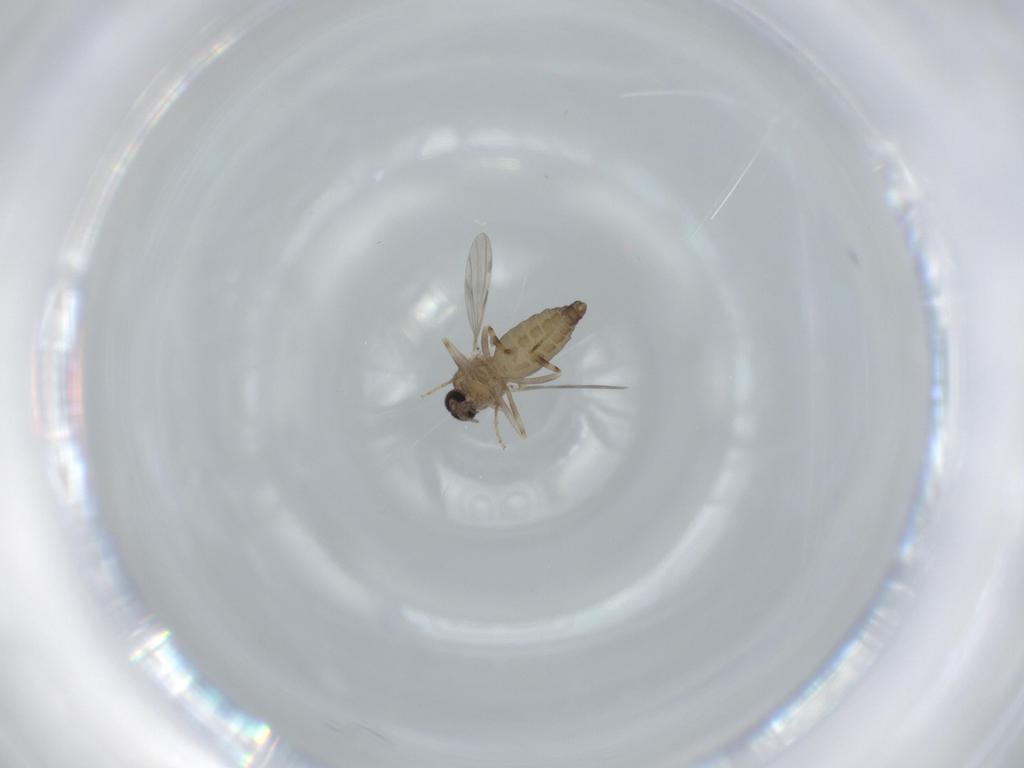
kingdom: Animalia
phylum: Arthropoda
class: Insecta
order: Diptera
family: Ceratopogonidae
